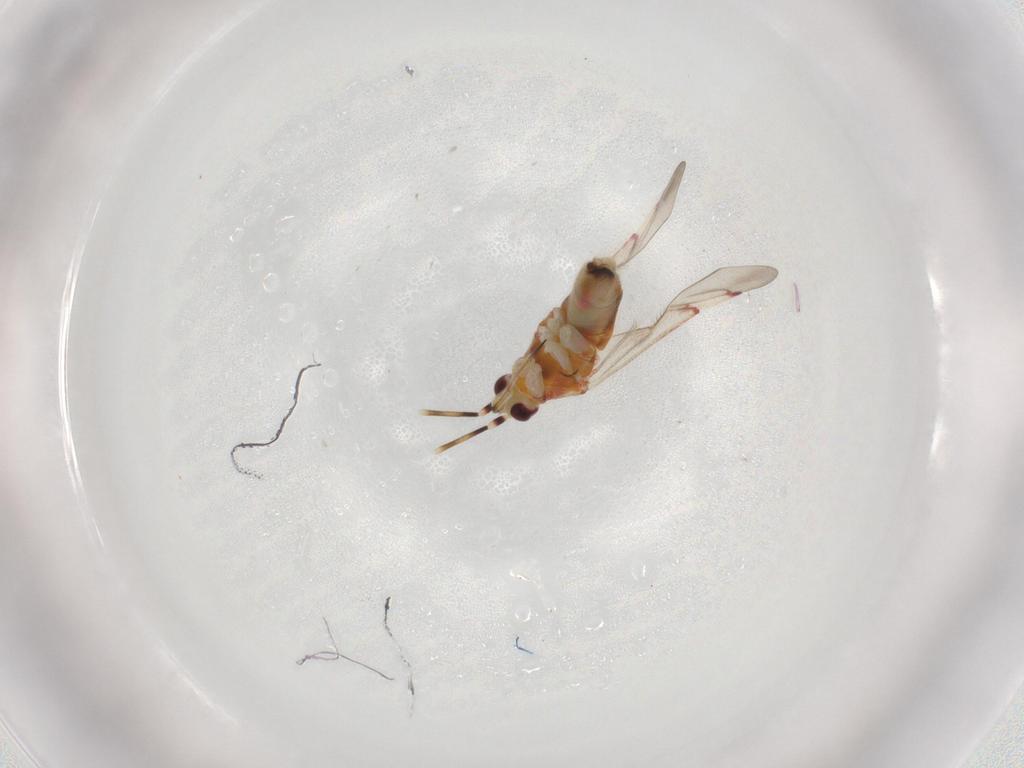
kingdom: Animalia
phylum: Arthropoda
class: Insecta
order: Hemiptera
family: Miridae
